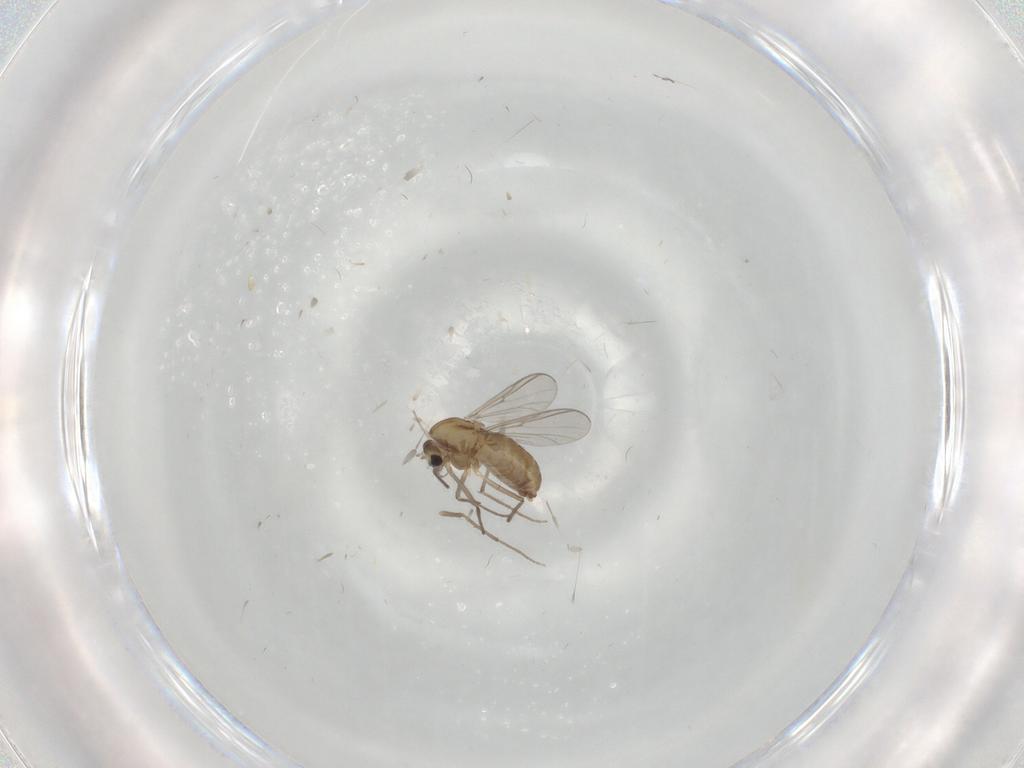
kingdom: Animalia
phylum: Arthropoda
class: Insecta
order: Diptera
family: Chironomidae
